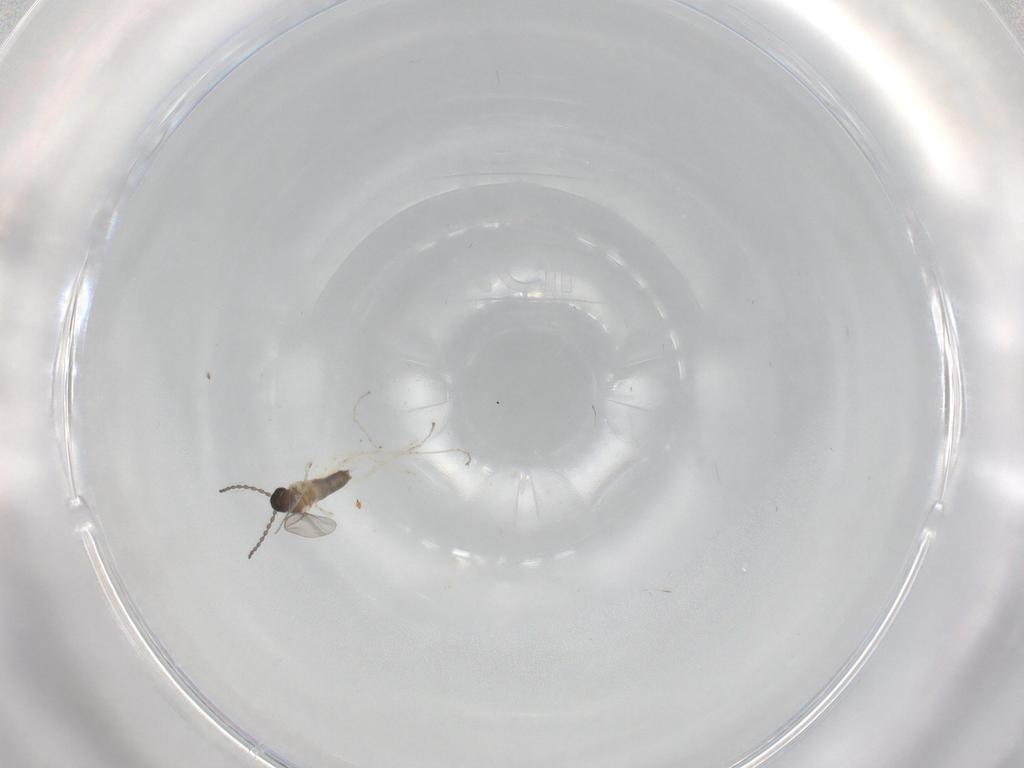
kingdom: Animalia
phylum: Arthropoda
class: Insecta
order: Diptera
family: Cecidomyiidae
